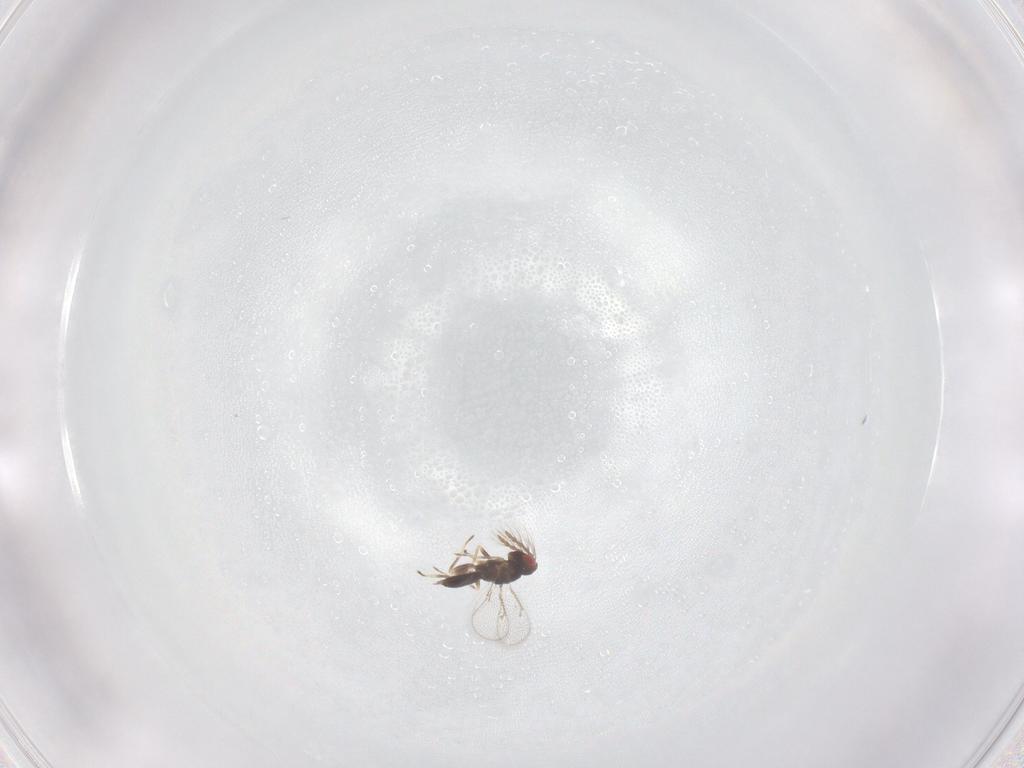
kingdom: Animalia
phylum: Arthropoda
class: Insecta
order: Hymenoptera
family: Eulophidae
